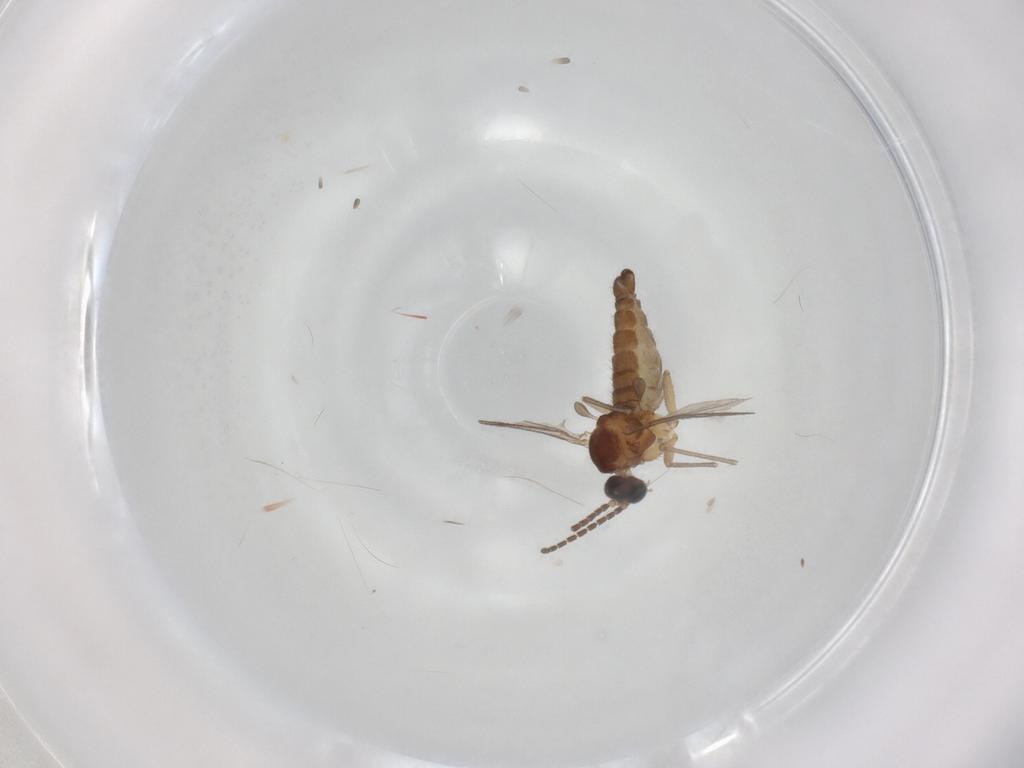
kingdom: Animalia
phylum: Arthropoda
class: Insecta
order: Diptera
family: Sciaridae
